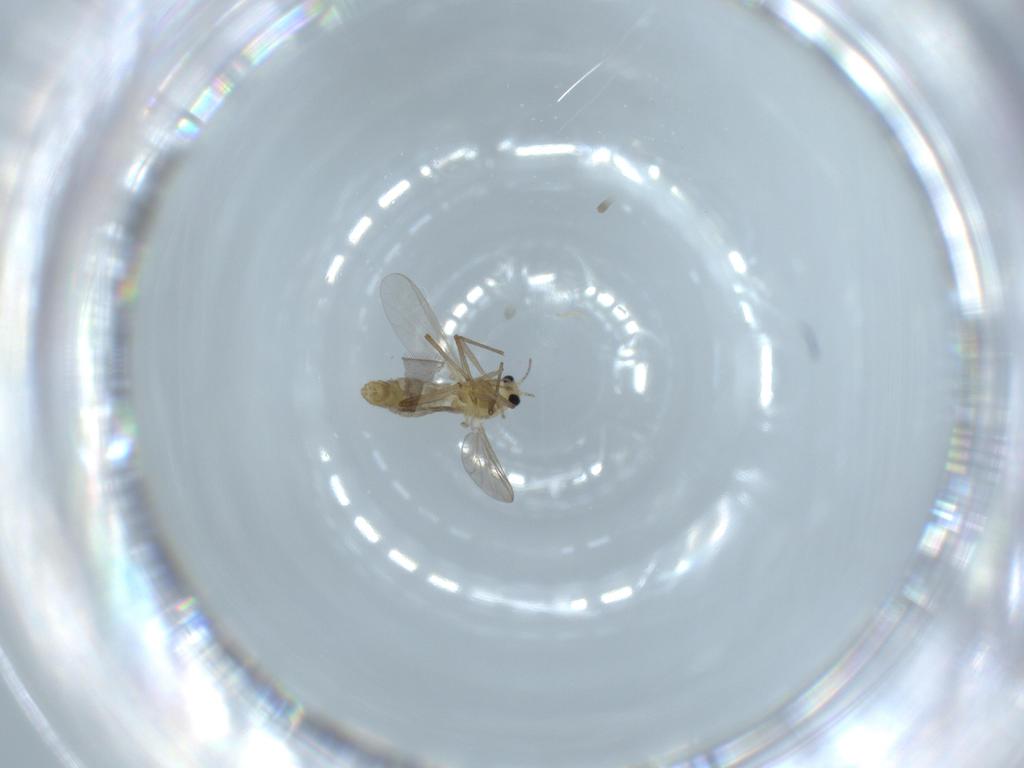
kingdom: Animalia
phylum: Arthropoda
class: Insecta
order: Diptera
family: Chironomidae
